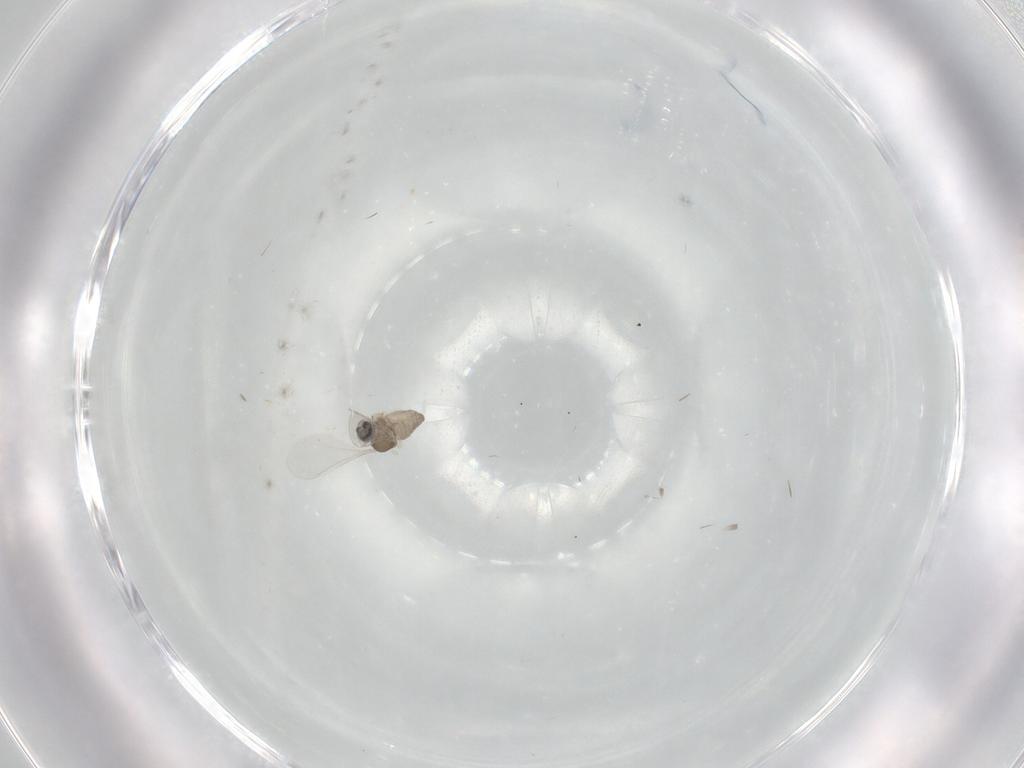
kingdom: Animalia
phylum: Arthropoda
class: Insecta
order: Diptera
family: Cecidomyiidae
